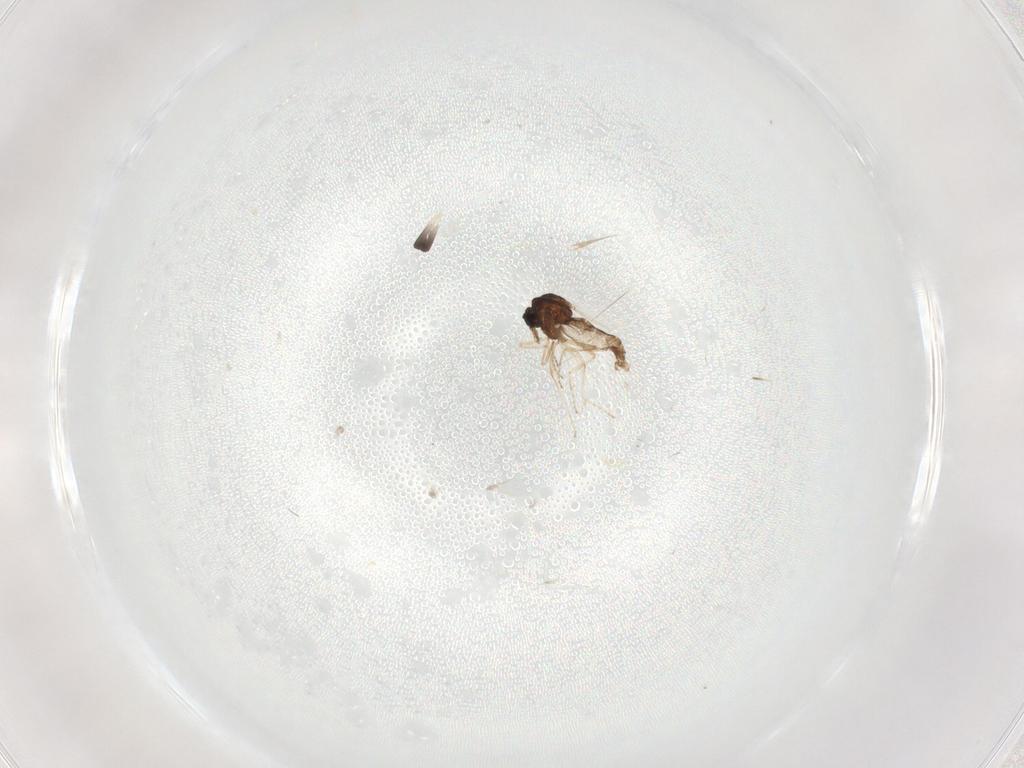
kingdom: Animalia
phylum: Arthropoda
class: Insecta
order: Diptera
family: Ceratopogonidae
